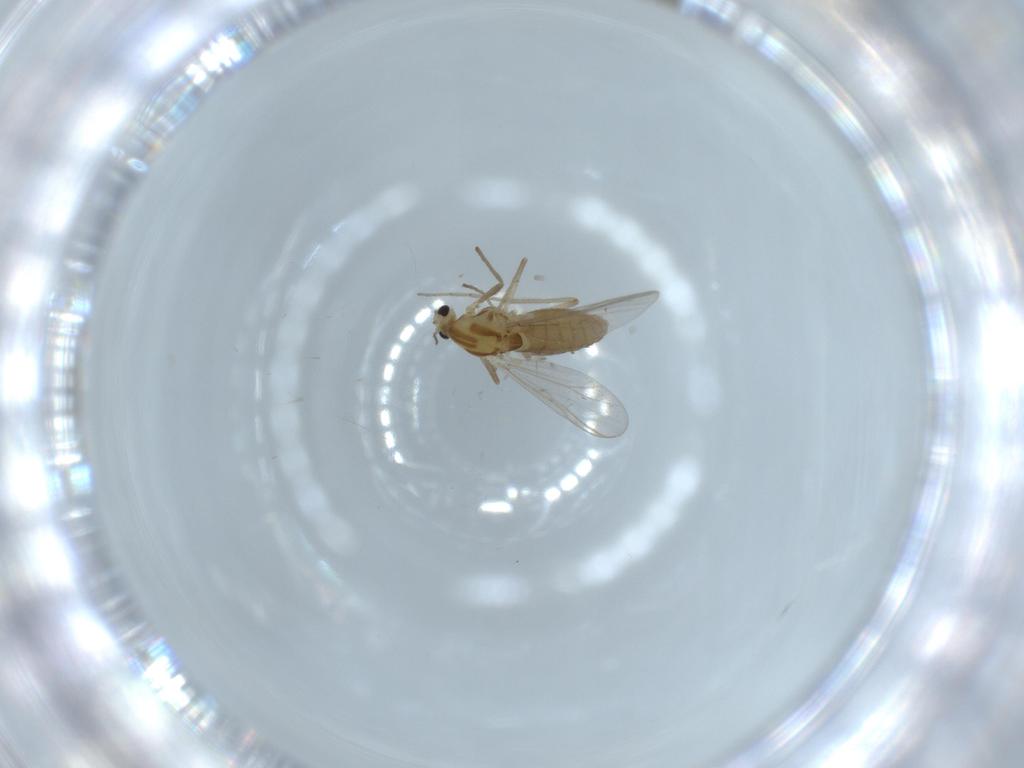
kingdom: Animalia
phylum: Arthropoda
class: Insecta
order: Diptera
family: Chironomidae
